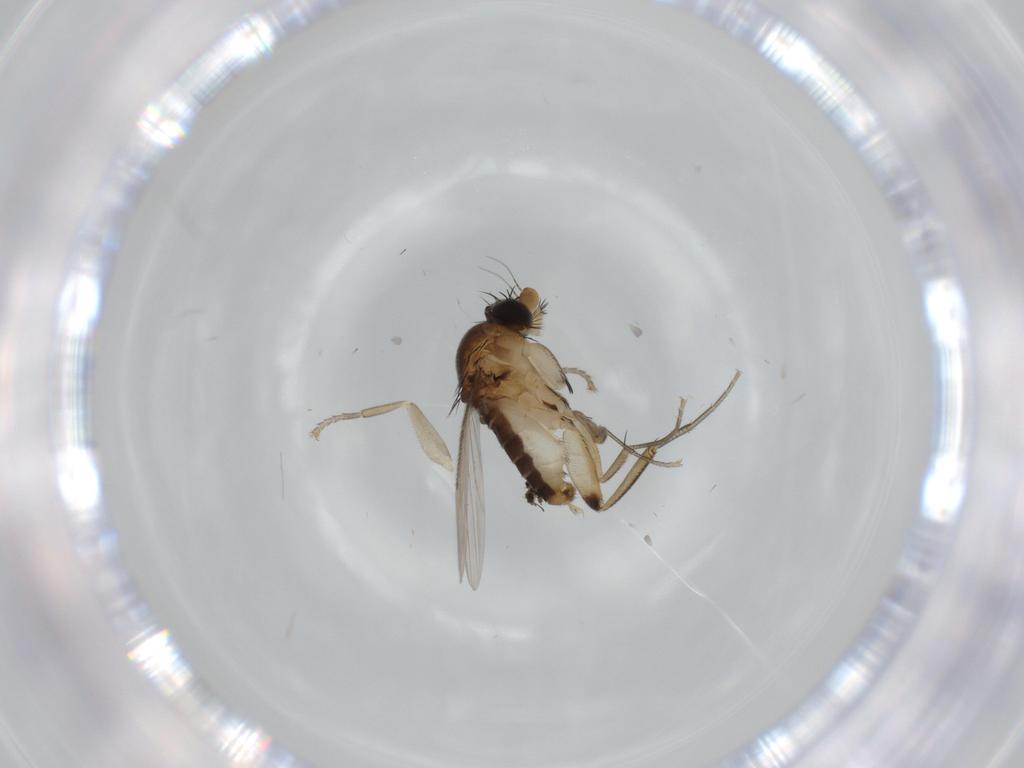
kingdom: Animalia
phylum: Arthropoda
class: Insecta
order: Diptera
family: Phoridae
